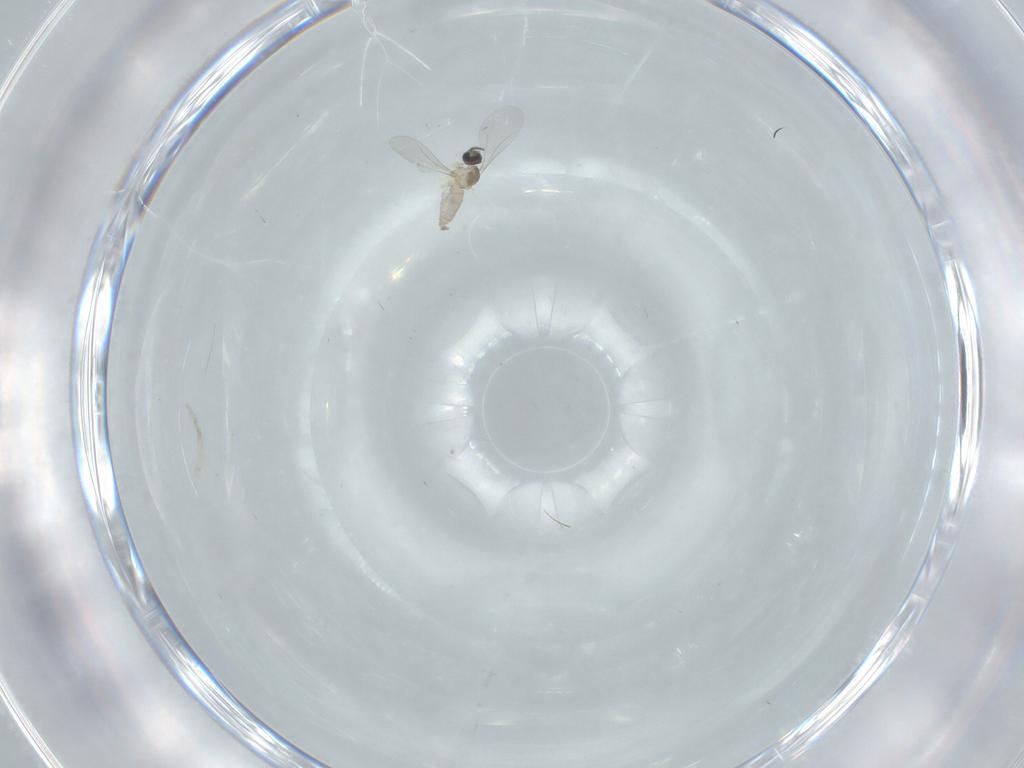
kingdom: Animalia
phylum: Arthropoda
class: Insecta
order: Diptera
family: Cecidomyiidae
